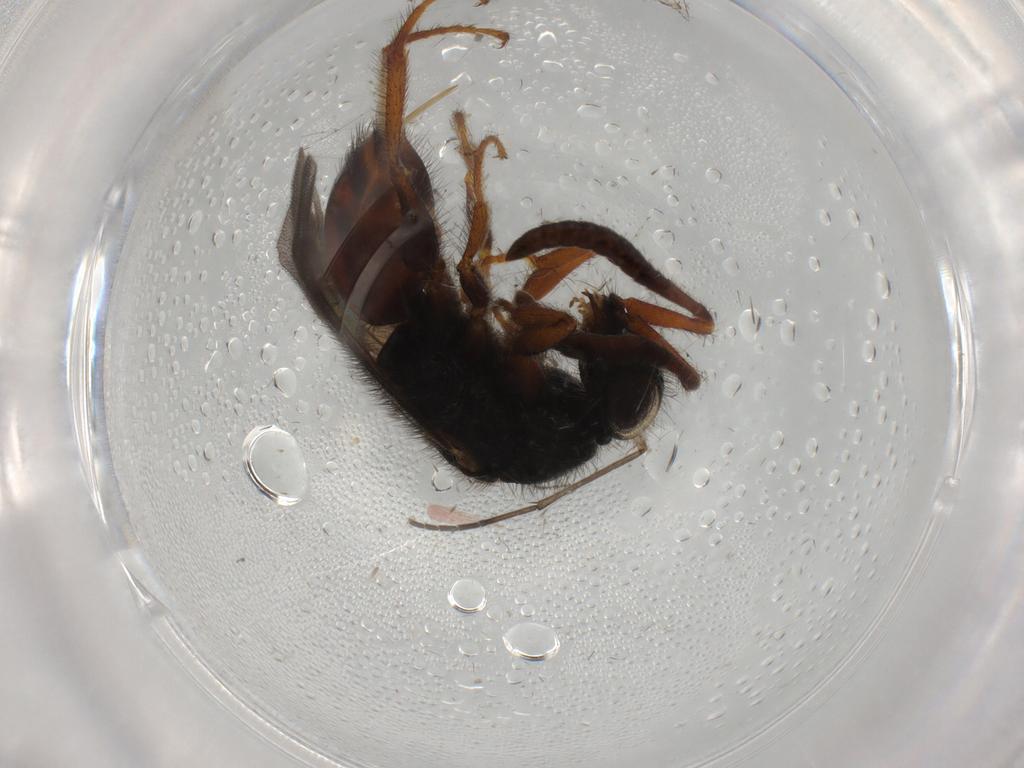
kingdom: Animalia
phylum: Arthropoda
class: Insecta
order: Hymenoptera
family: Chrysididae
